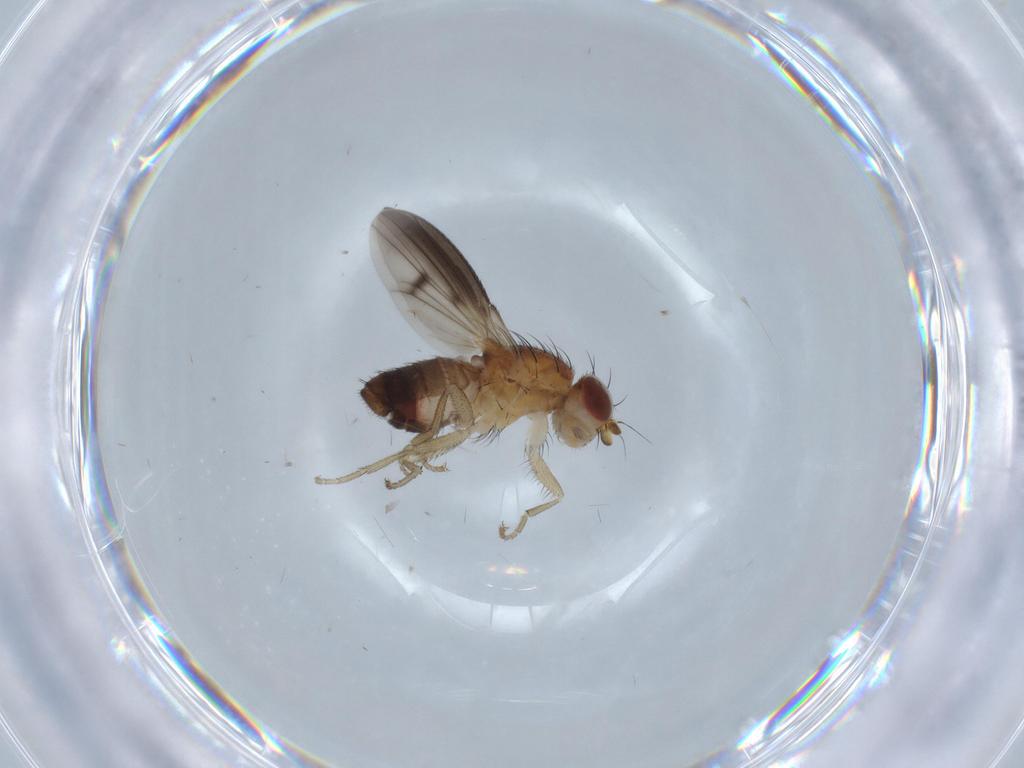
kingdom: Animalia
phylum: Arthropoda
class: Insecta
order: Diptera
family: Heleomyzidae
